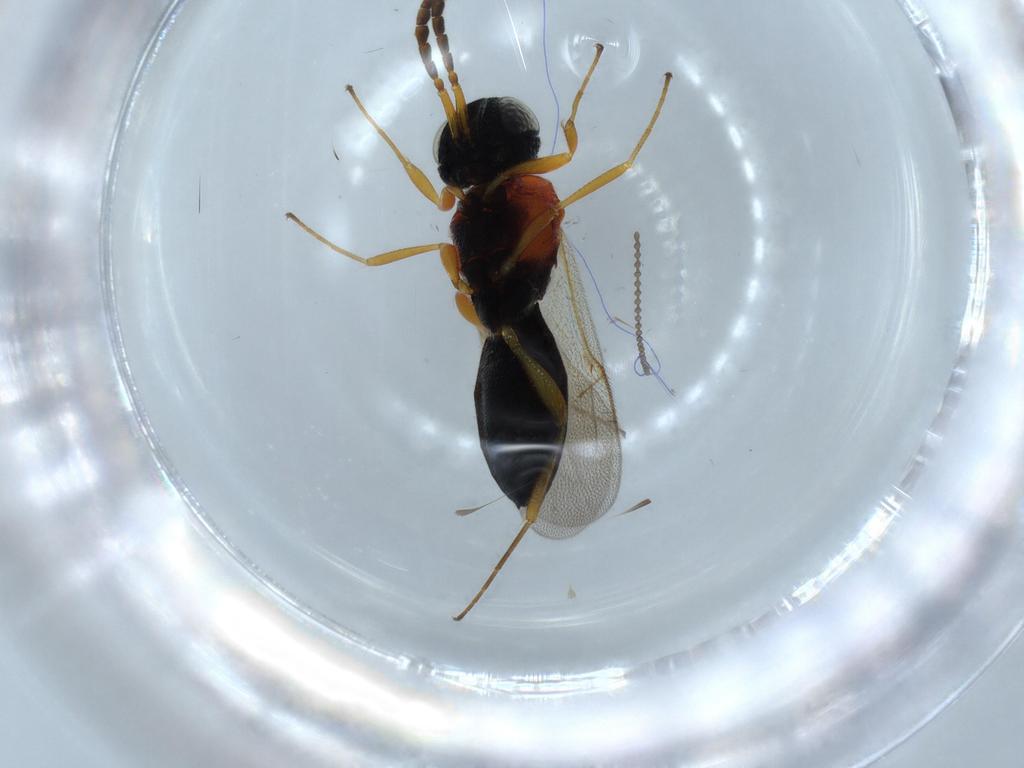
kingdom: Animalia
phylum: Arthropoda
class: Insecta
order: Hymenoptera
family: Scelionidae
